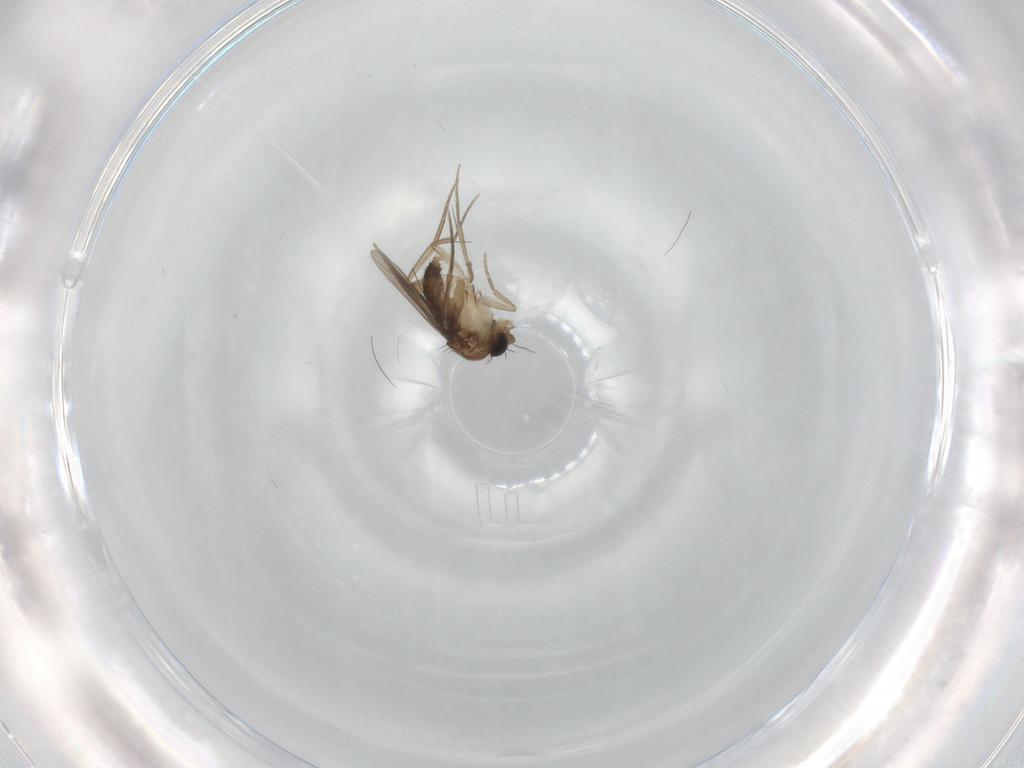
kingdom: Animalia
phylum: Arthropoda
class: Insecta
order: Diptera
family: Phoridae
